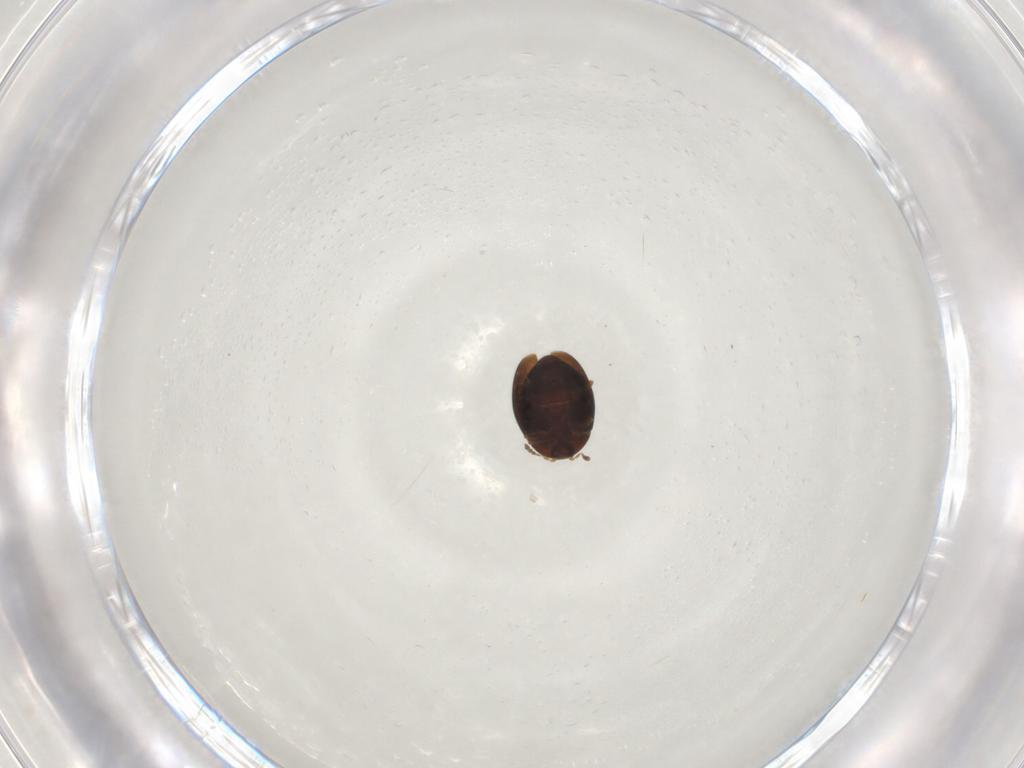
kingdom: Animalia
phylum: Arthropoda
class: Insecta
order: Coleoptera
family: Corylophidae
